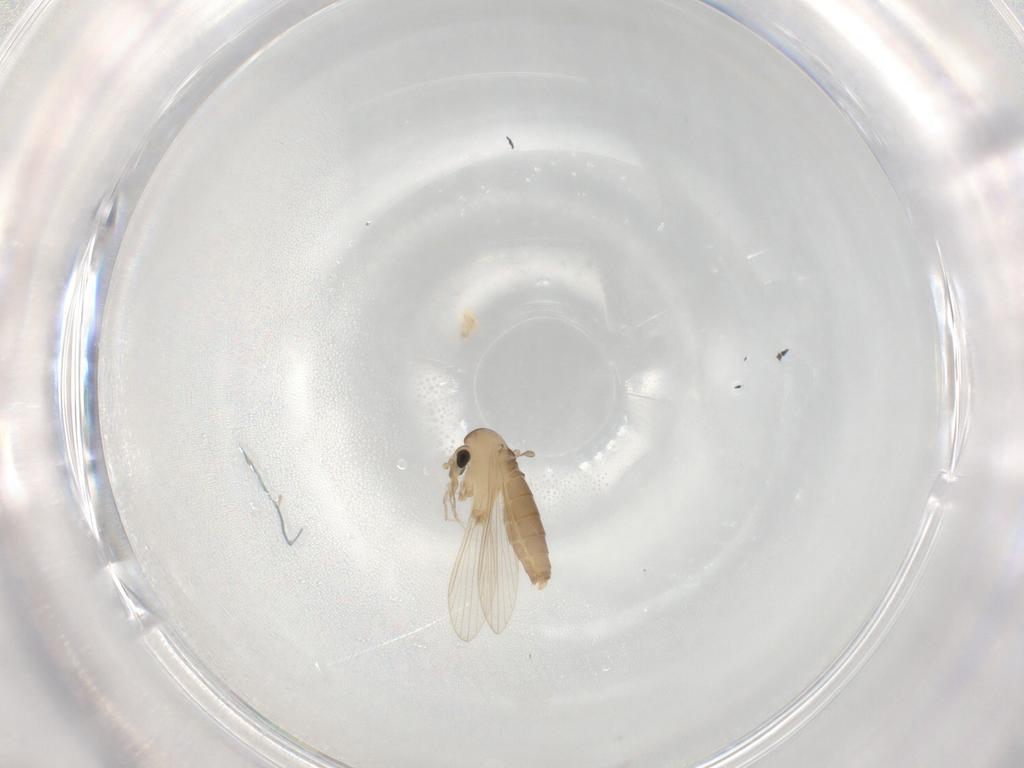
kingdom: Animalia
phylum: Arthropoda
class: Insecta
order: Diptera
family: Psychodidae
